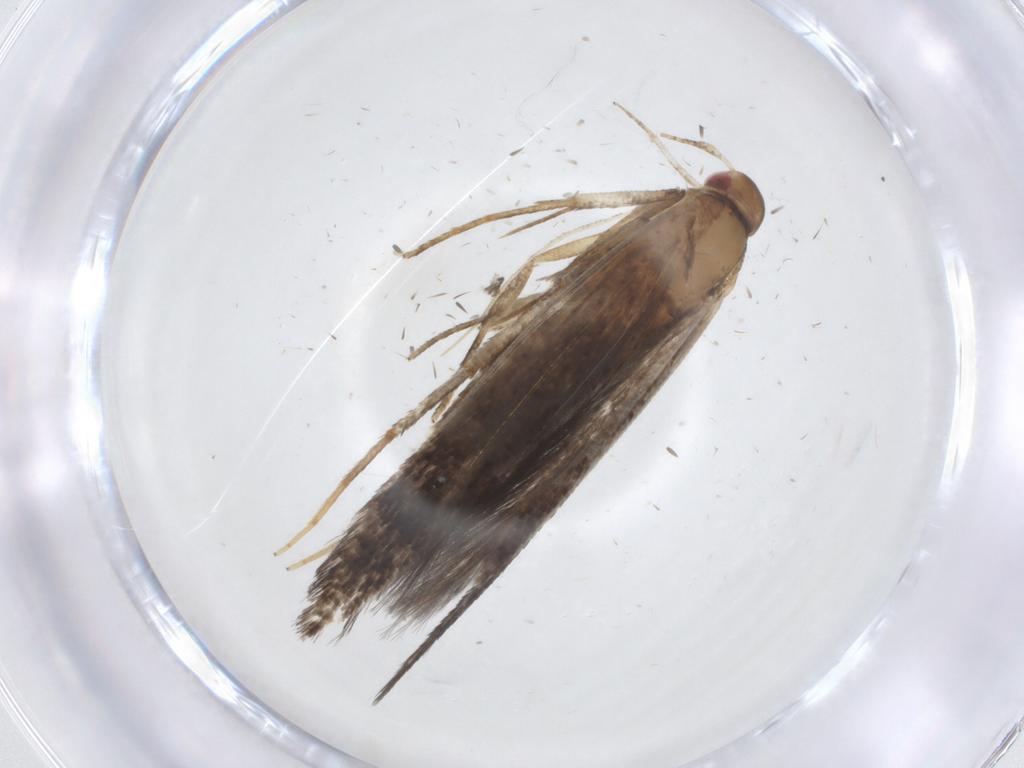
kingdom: Animalia
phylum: Arthropoda
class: Insecta
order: Lepidoptera
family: Cosmopterigidae
